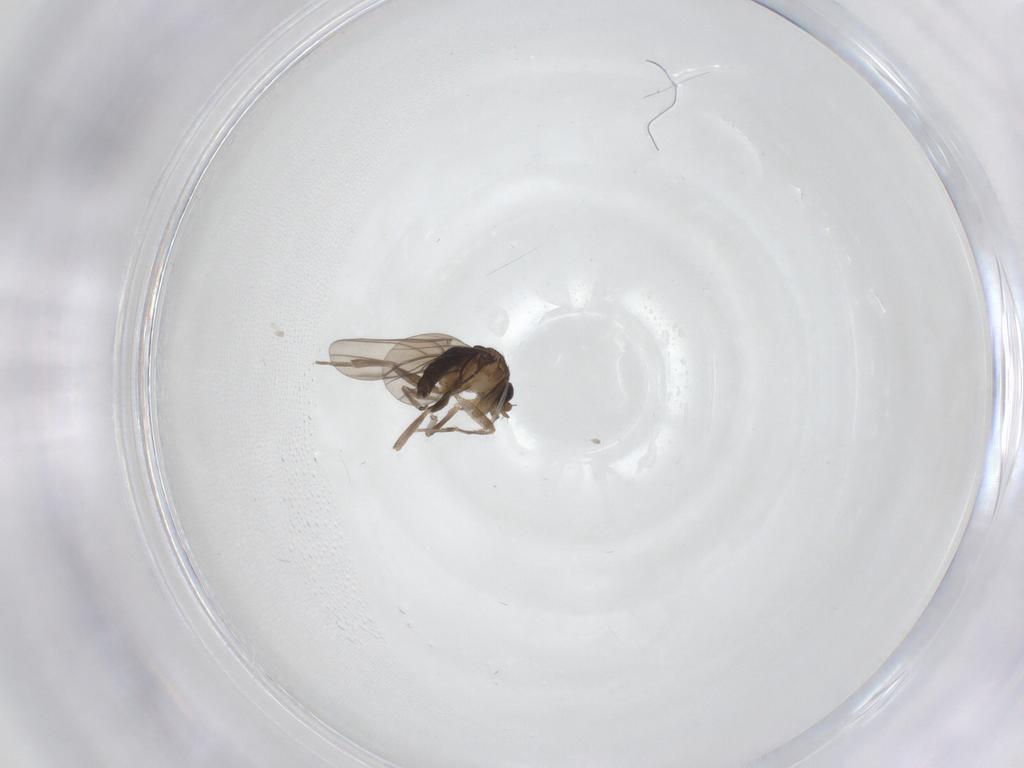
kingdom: Animalia
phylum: Arthropoda
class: Insecta
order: Diptera
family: Phoridae
